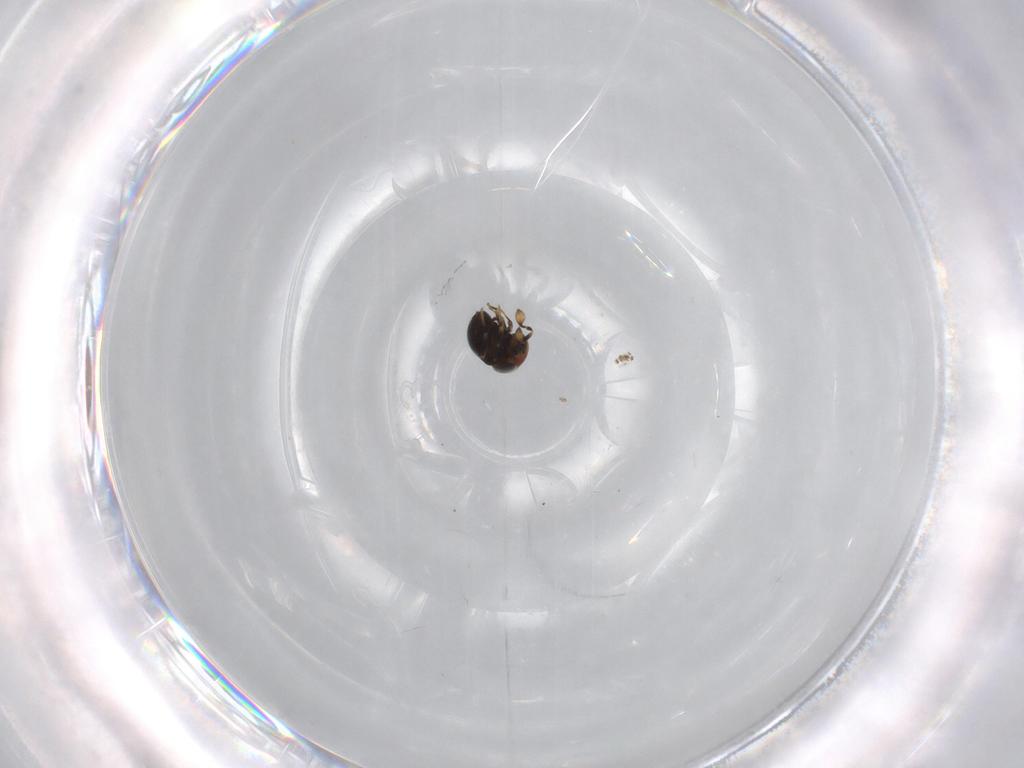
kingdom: Animalia
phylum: Arthropoda
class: Insecta
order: Hymenoptera
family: Scelionidae
